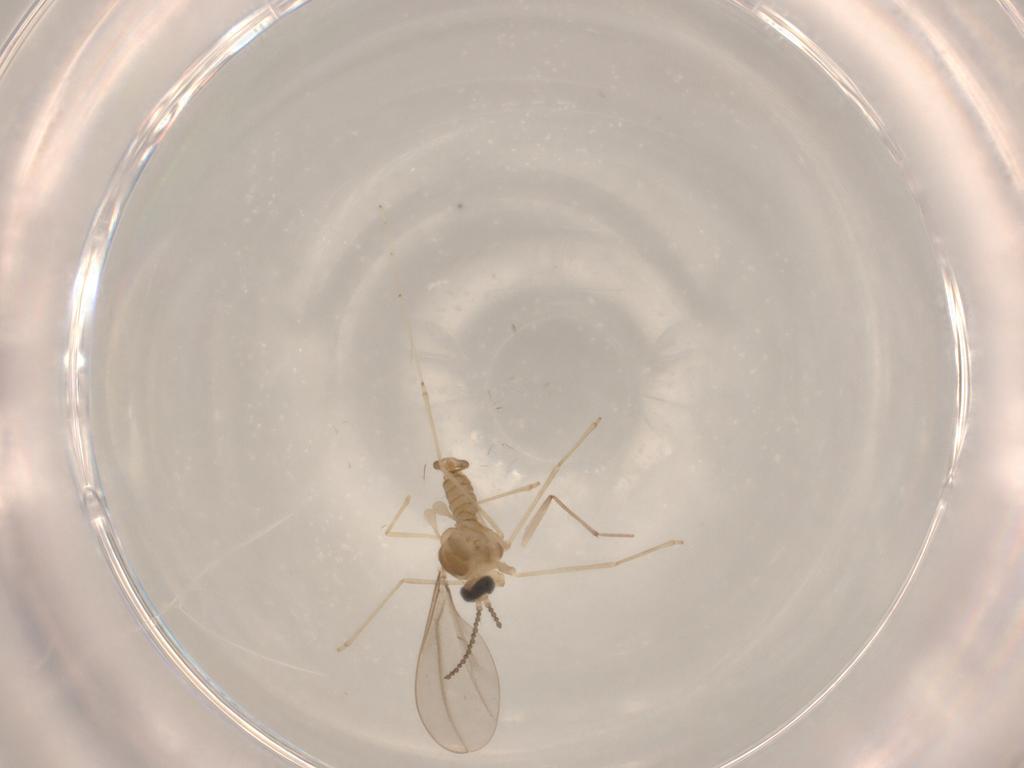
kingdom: Animalia
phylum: Arthropoda
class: Insecta
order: Diptera
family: Cecidomyiidae
